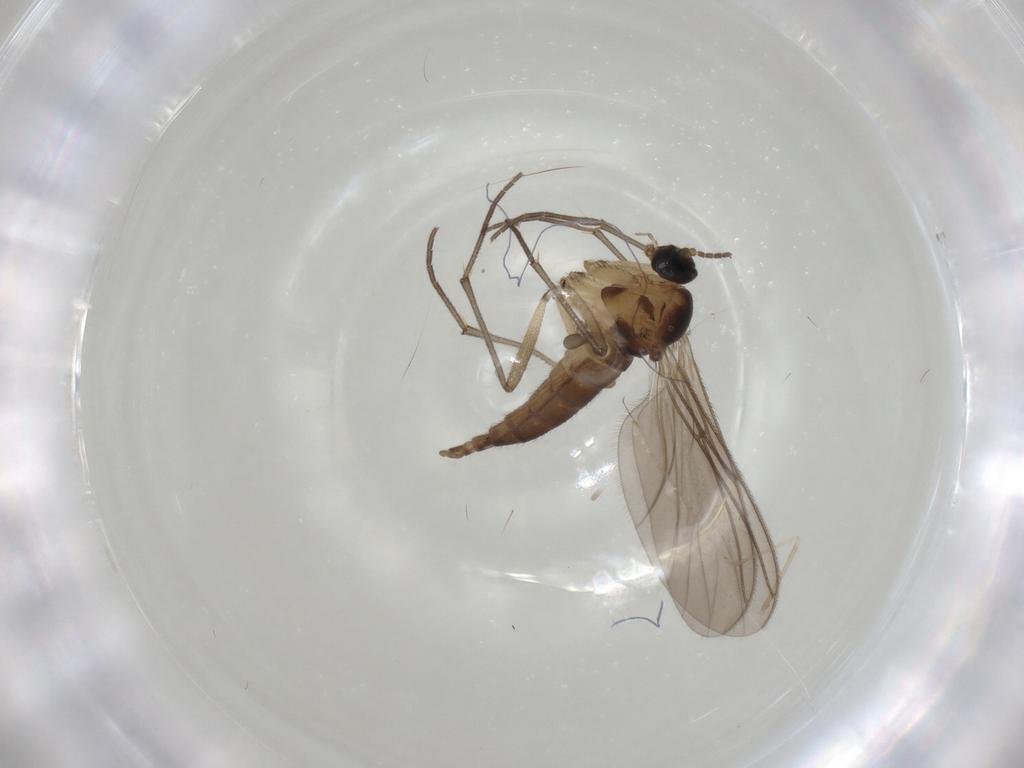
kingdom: Animalia
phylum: Arthropoda
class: Insecta
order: Diptera
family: Sciaridae
